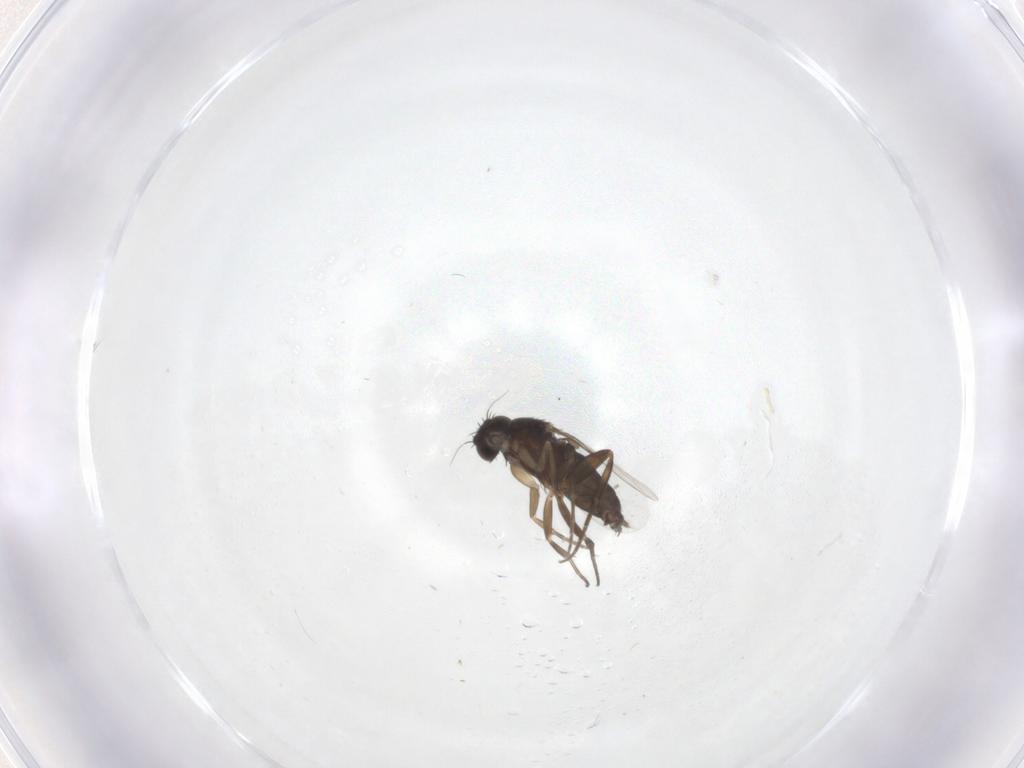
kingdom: Animalia
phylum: Arthropoda
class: Insecta
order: Diptera
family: Phoridae
